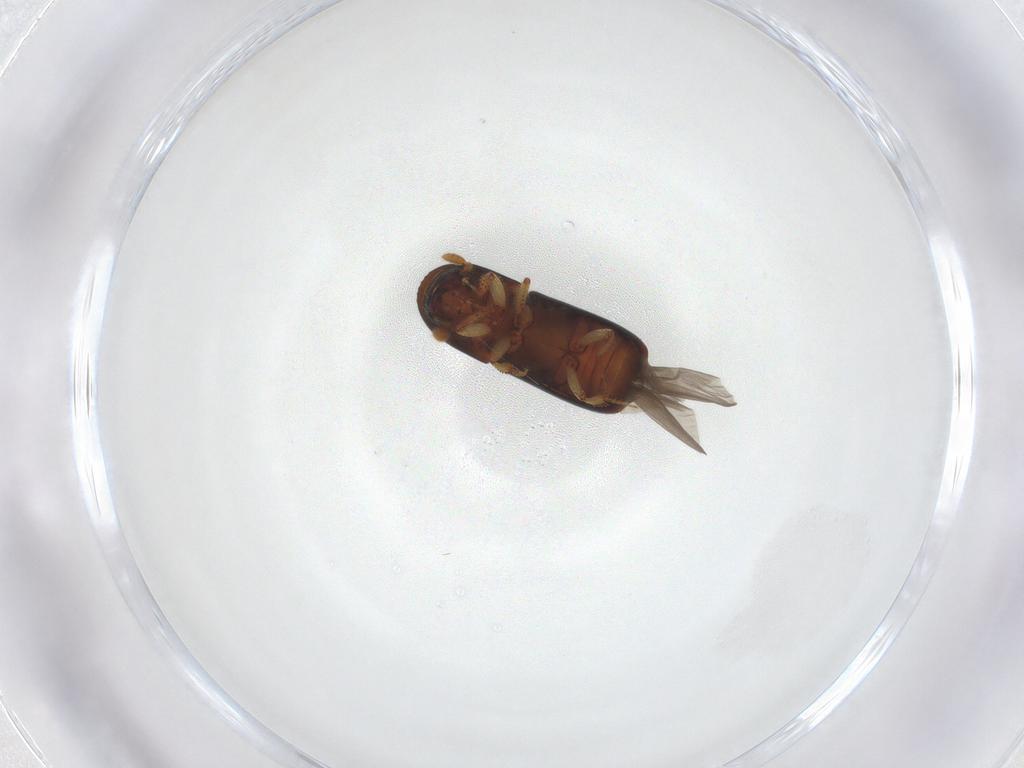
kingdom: Animalia
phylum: Arthropoda
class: Insecta
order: Coleoptera
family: Curculionidae
